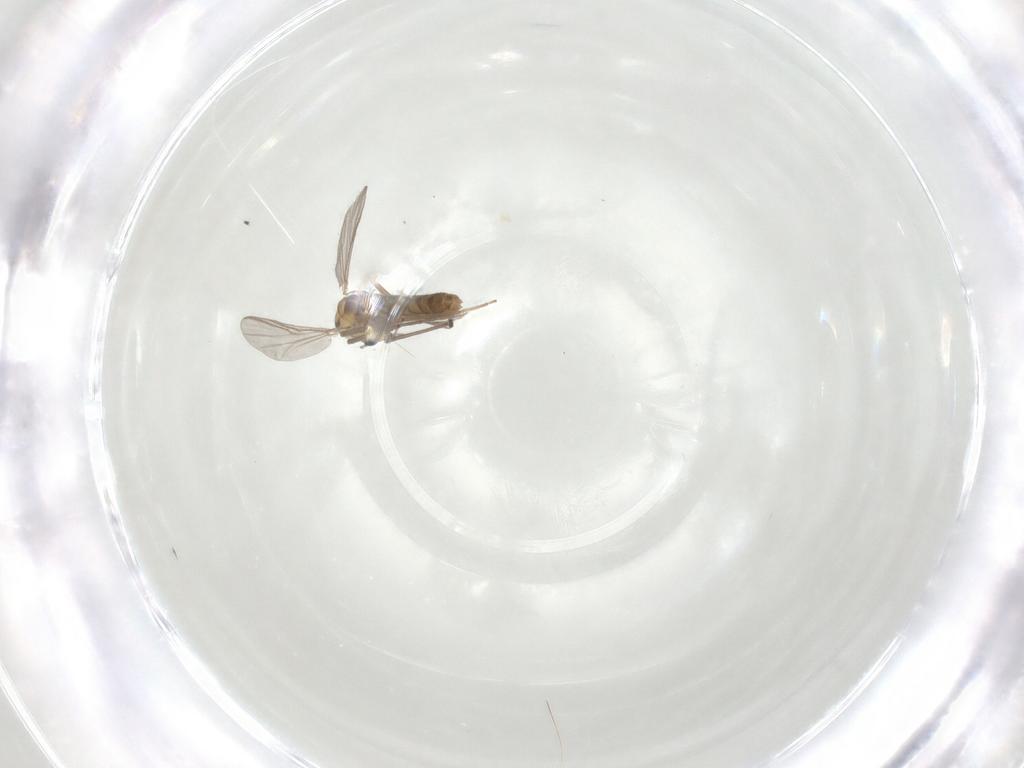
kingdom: Animalia
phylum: Arthropoda
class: Insecta
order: Diptera
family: Chironomidae
